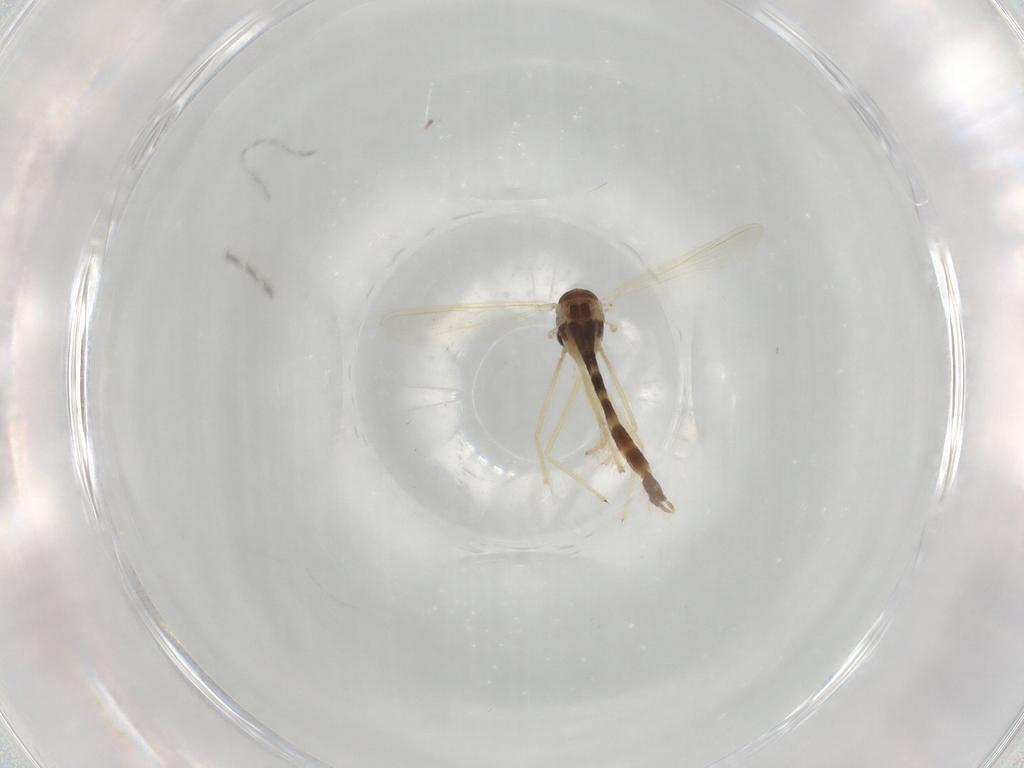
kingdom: Animalia
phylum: Arthropoda
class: Insecta
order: Diptera
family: Chironomidae
